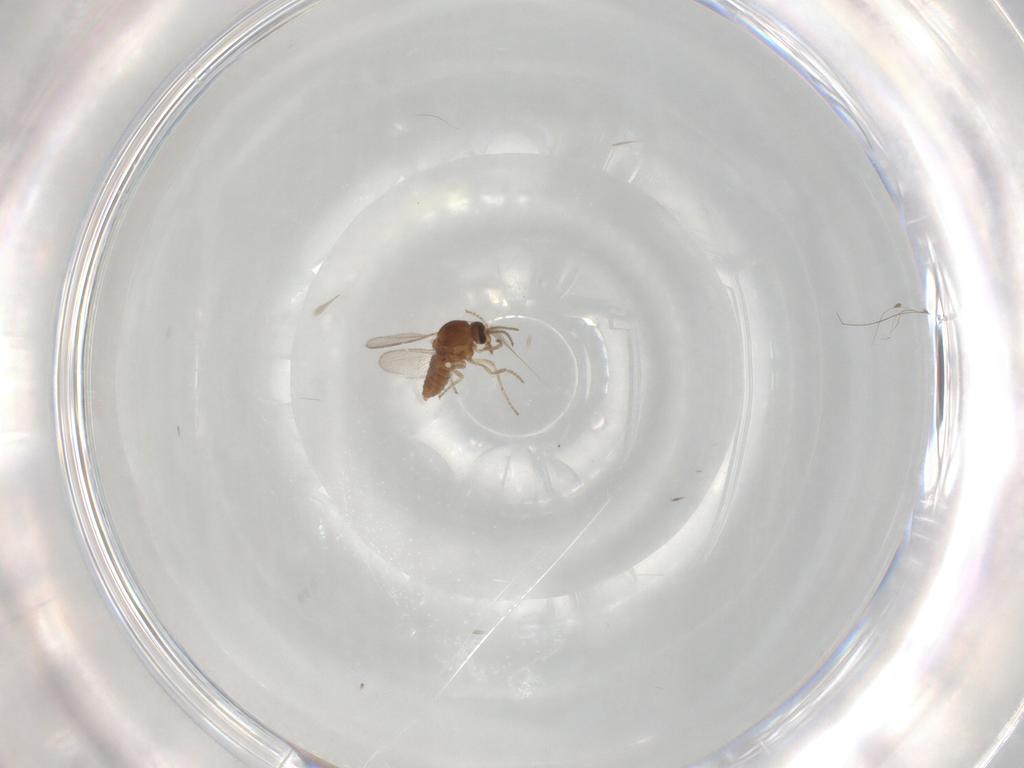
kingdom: Animalia
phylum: Arthropoda
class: Insecta
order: Diptera
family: Ceratopogonidae
